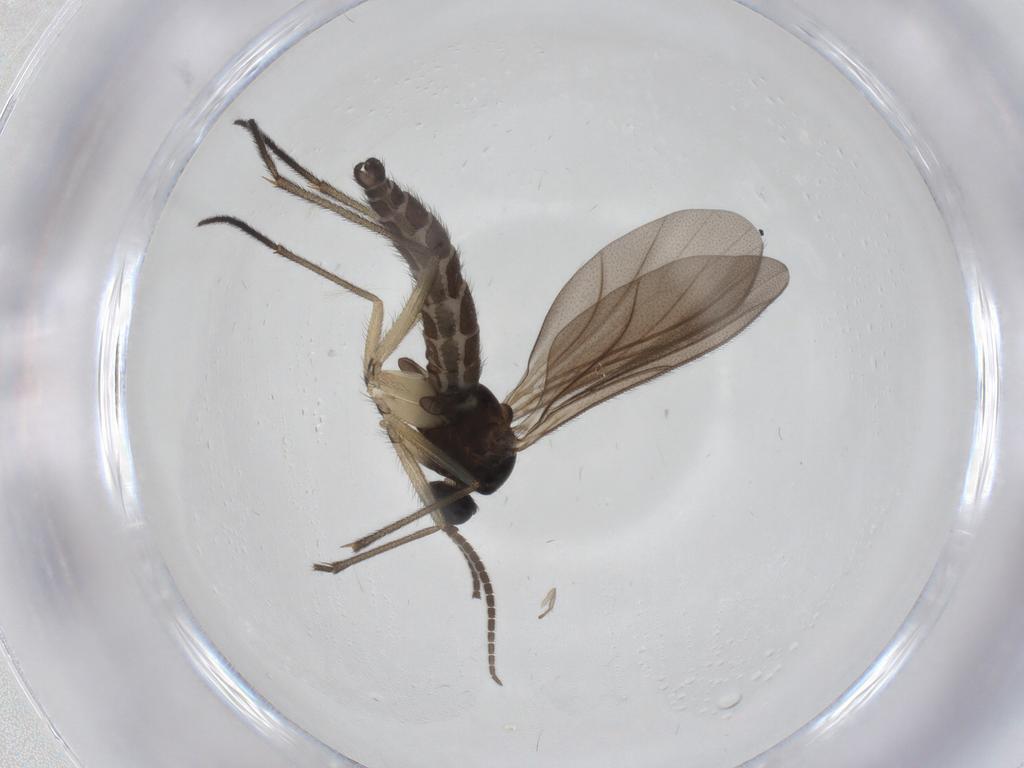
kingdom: Animalia
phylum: Arthropoda
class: Insecta
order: Diptera
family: Sciaridae
